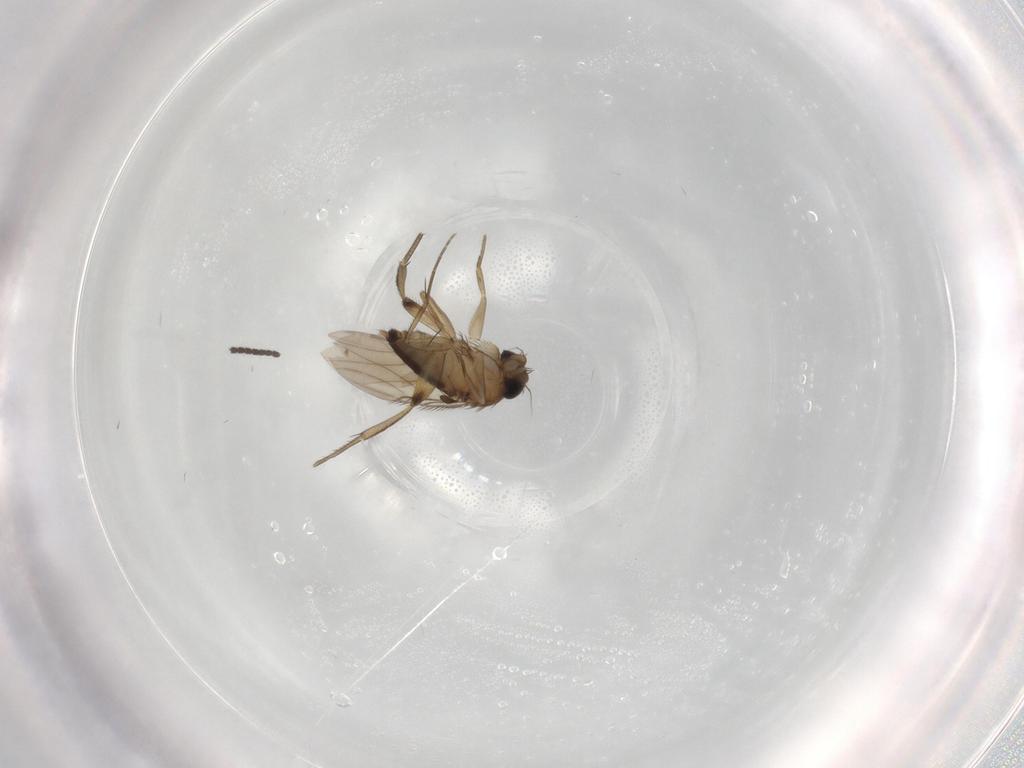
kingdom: Animalia
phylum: Arthropoda
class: Insecta
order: Diptera
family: Phoridae
